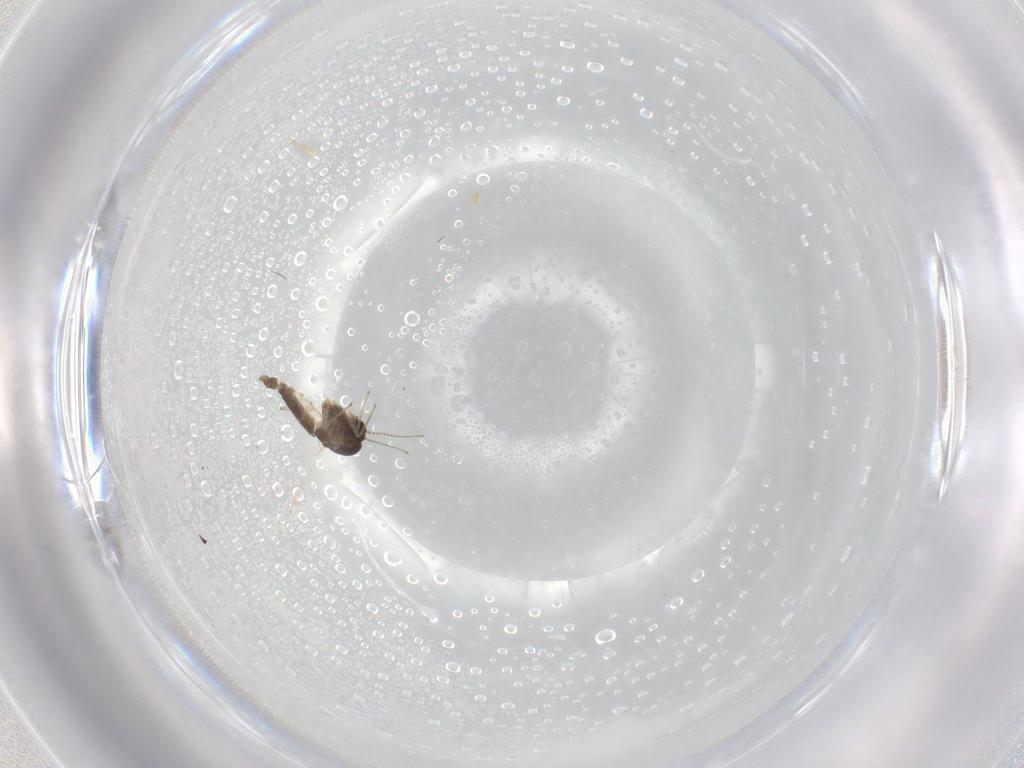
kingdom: Animalia
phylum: Arthropoda
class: Insecta
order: Diptera
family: Chironomidae
